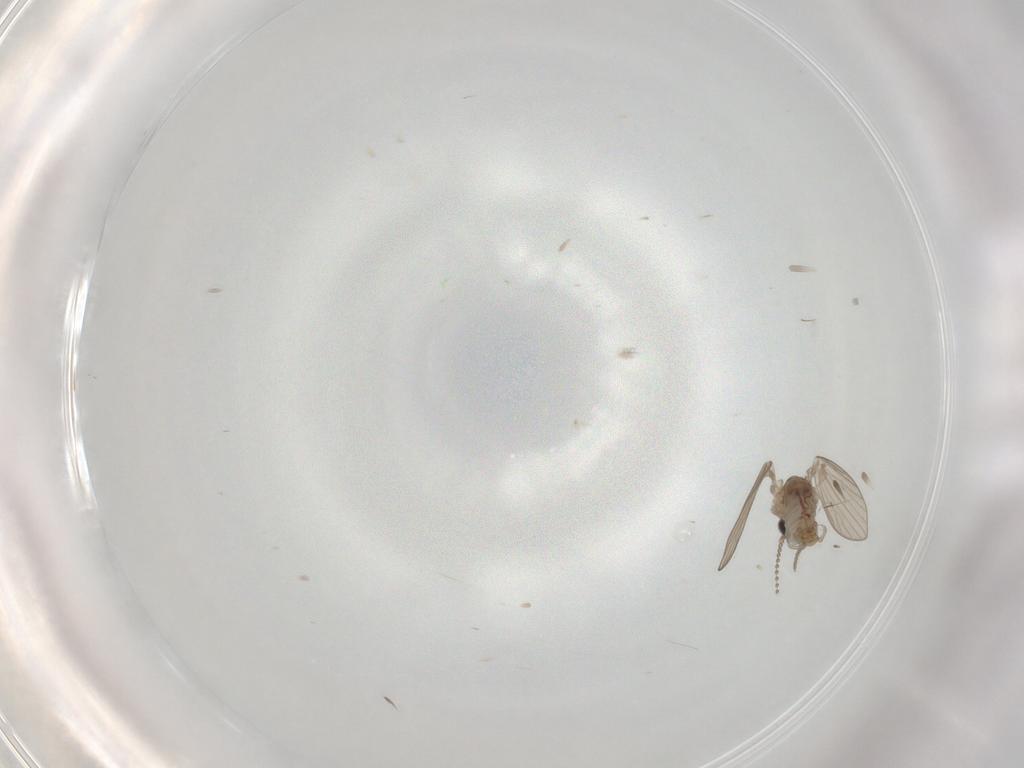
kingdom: Animalia
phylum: Arthropoda
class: Insecta
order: Diptera
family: Psychodidae
